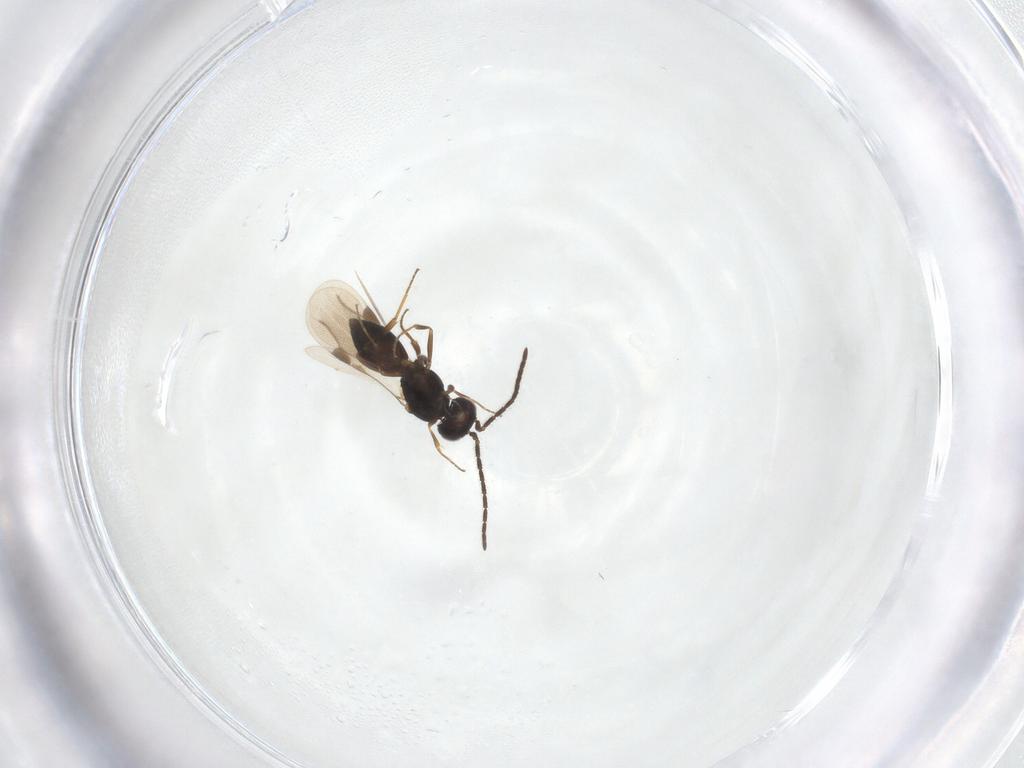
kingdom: Animalia
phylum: Arthropoda
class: Insecta
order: Hymenoptera
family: Megaspilidae
